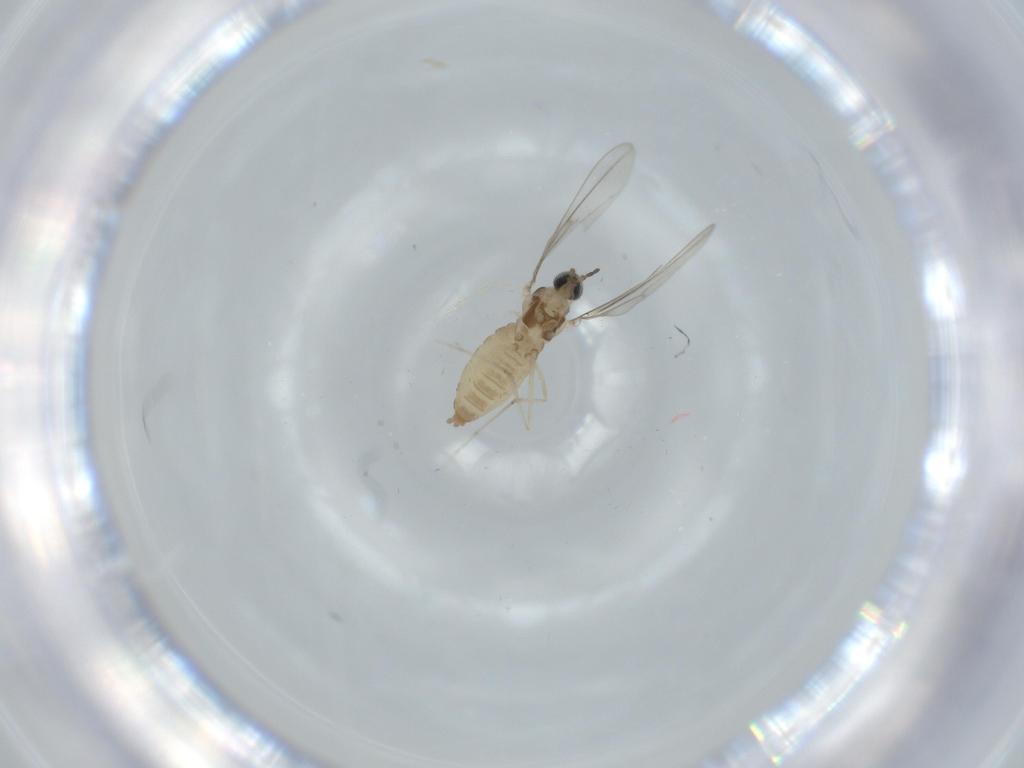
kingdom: Animalia
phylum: Arthropoda
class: Insecta
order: Diptera
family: Cecidomyiidae
